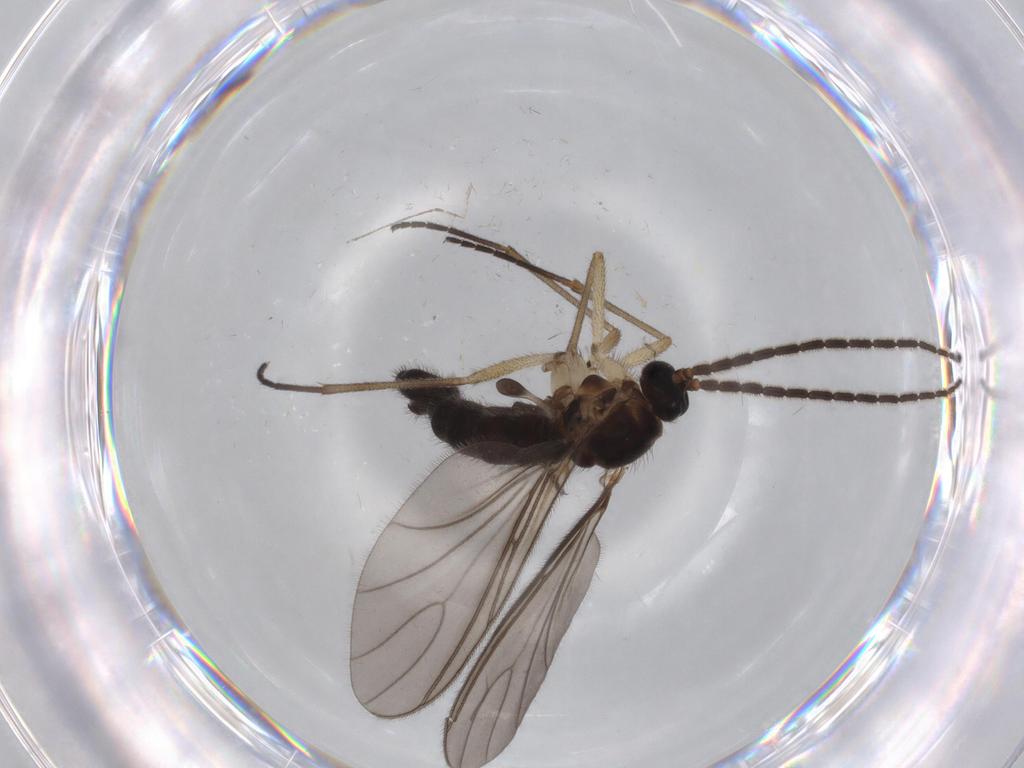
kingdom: Animalia
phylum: Arthropoda
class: Insecta
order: Diptera
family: Sciaridae
